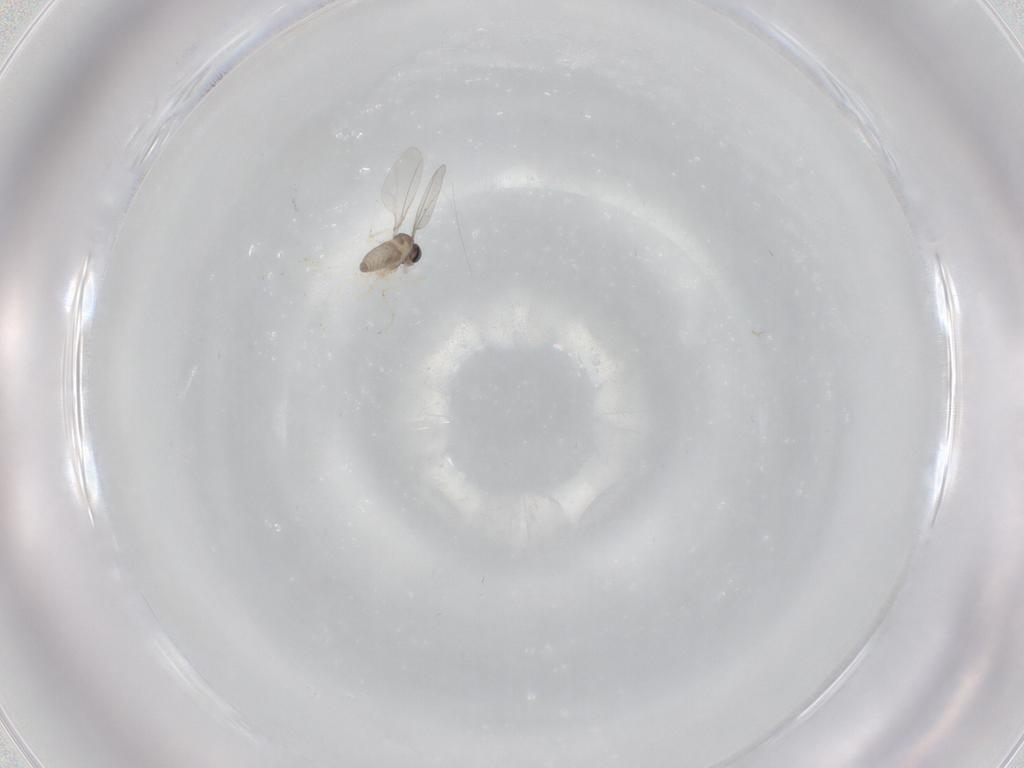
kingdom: Animalia
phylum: Arthropoda
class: Insecta
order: Diptera
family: Cecidomyiidae
